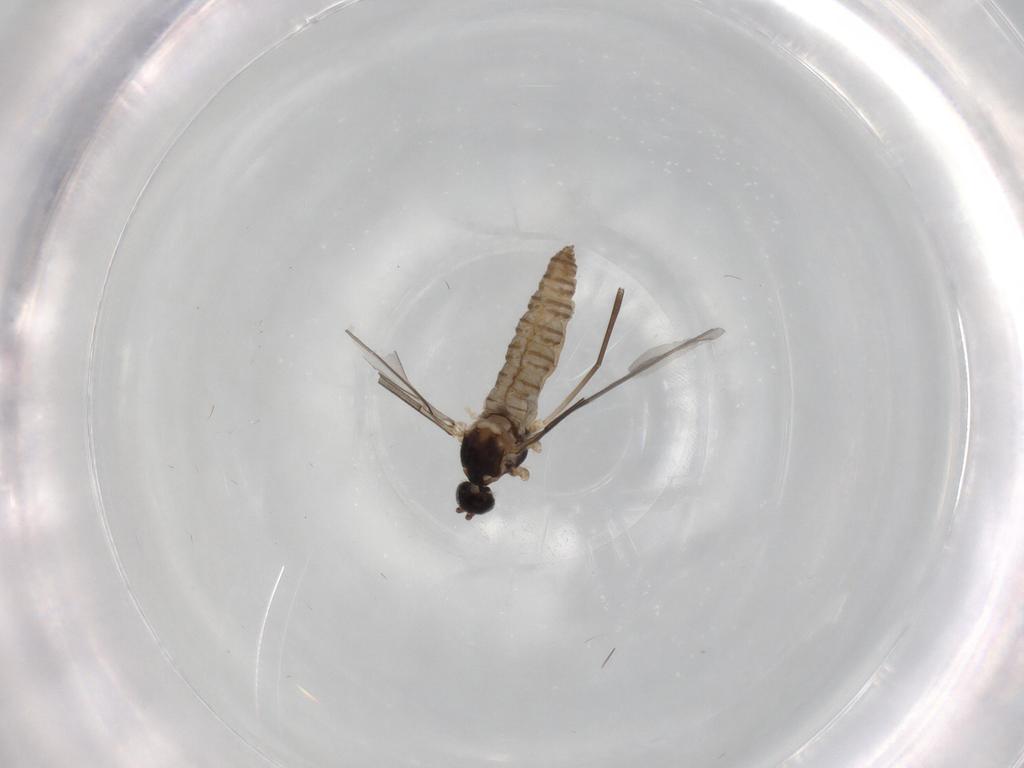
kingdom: Animalia
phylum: Arthropoda
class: Insecta
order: Diptera
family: Cecidomyiidae
